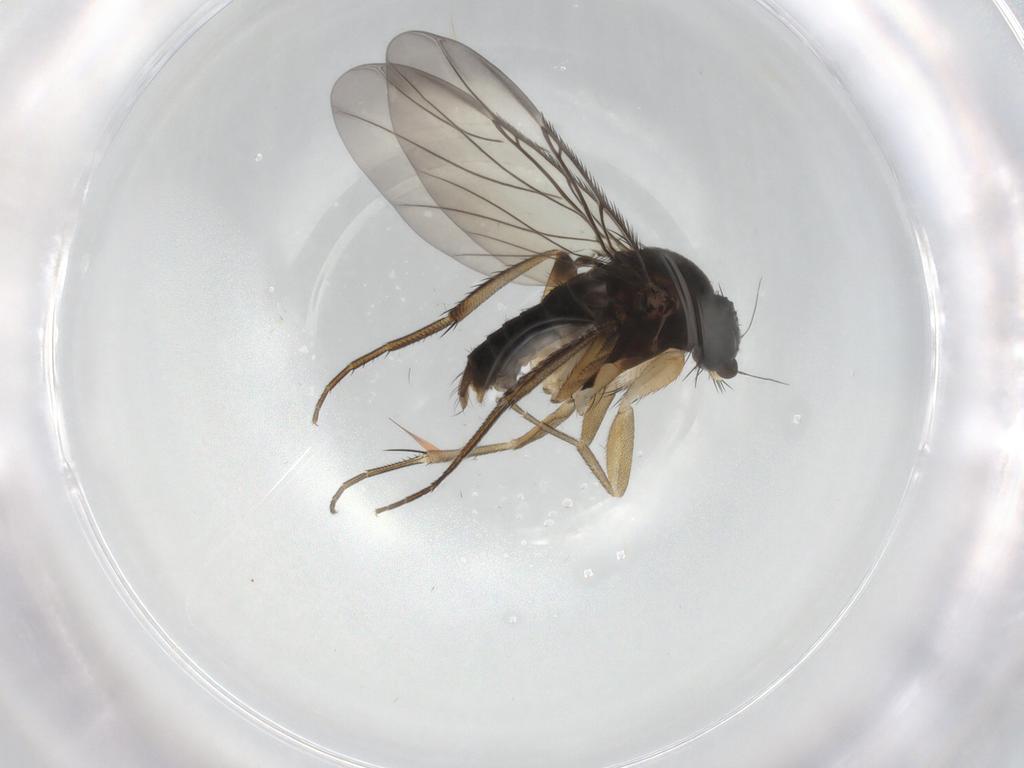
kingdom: Animalia
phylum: Arthropoda
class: Insecta
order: Diptera
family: Phoridae
